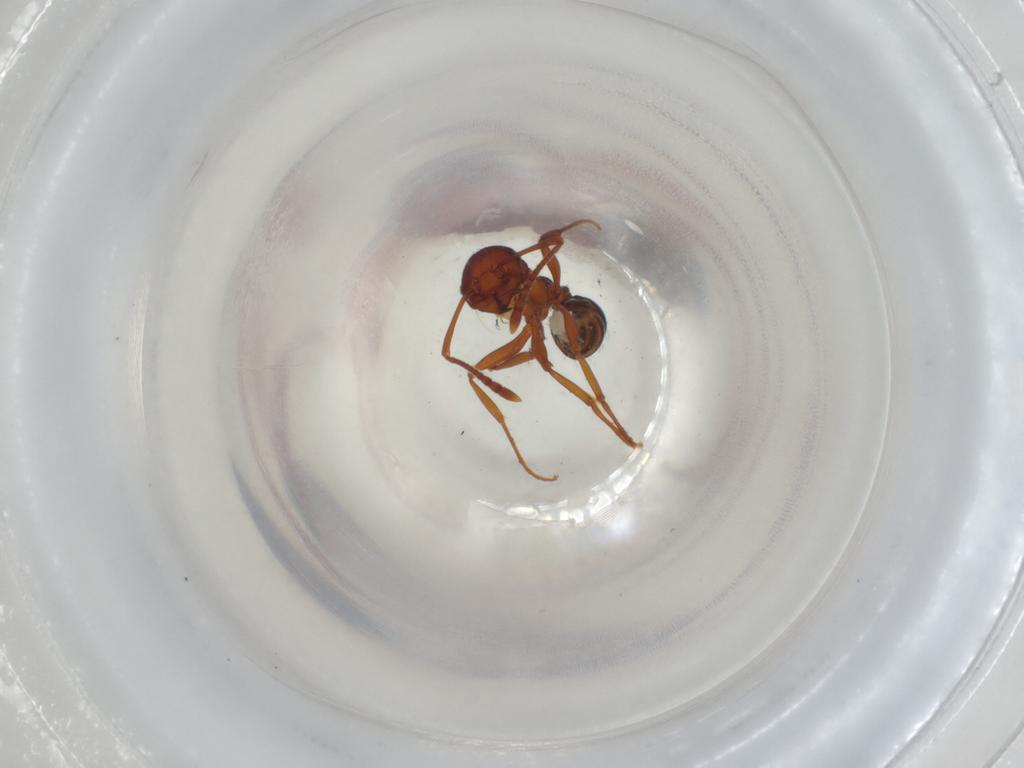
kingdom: Animalia
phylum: Arthropoda
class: Insecta
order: Hymenoptera
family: Formicidae
